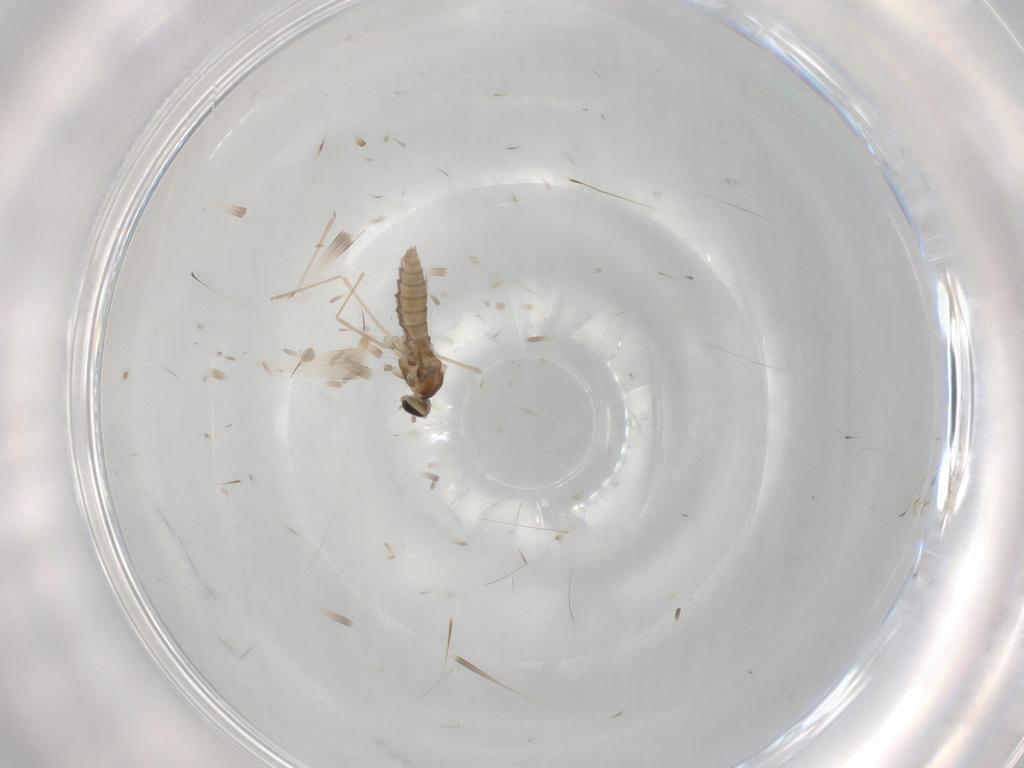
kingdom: Animalia
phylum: Arthropoda
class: Insecta
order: Diptera
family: Cecidomyiidae
